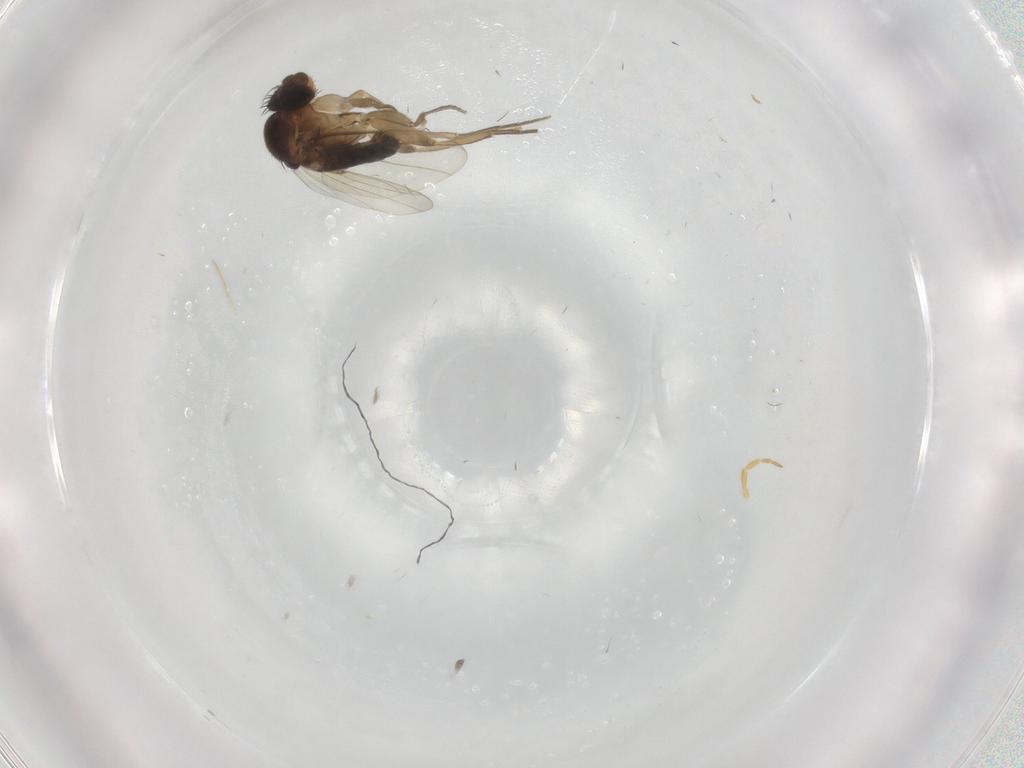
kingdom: Animalia
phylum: Arthropoda
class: Insecta
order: Diptera
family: Phoridae
